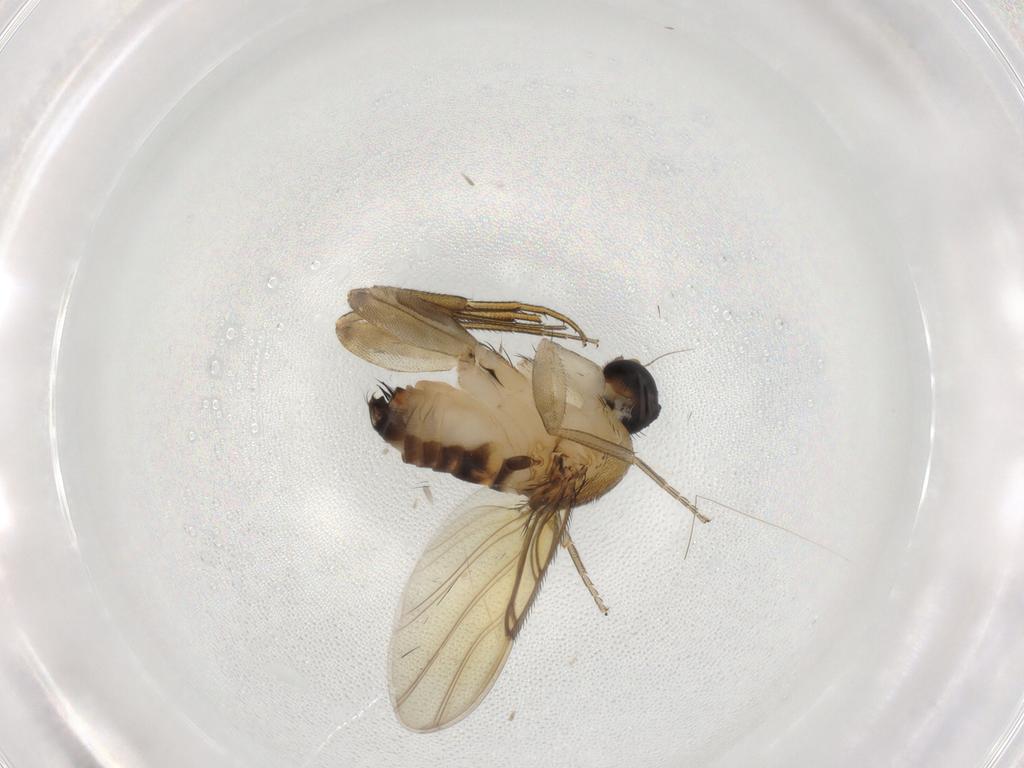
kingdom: Animalia
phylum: Arthropoda
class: Insecta
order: Diptera
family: Phoridae
